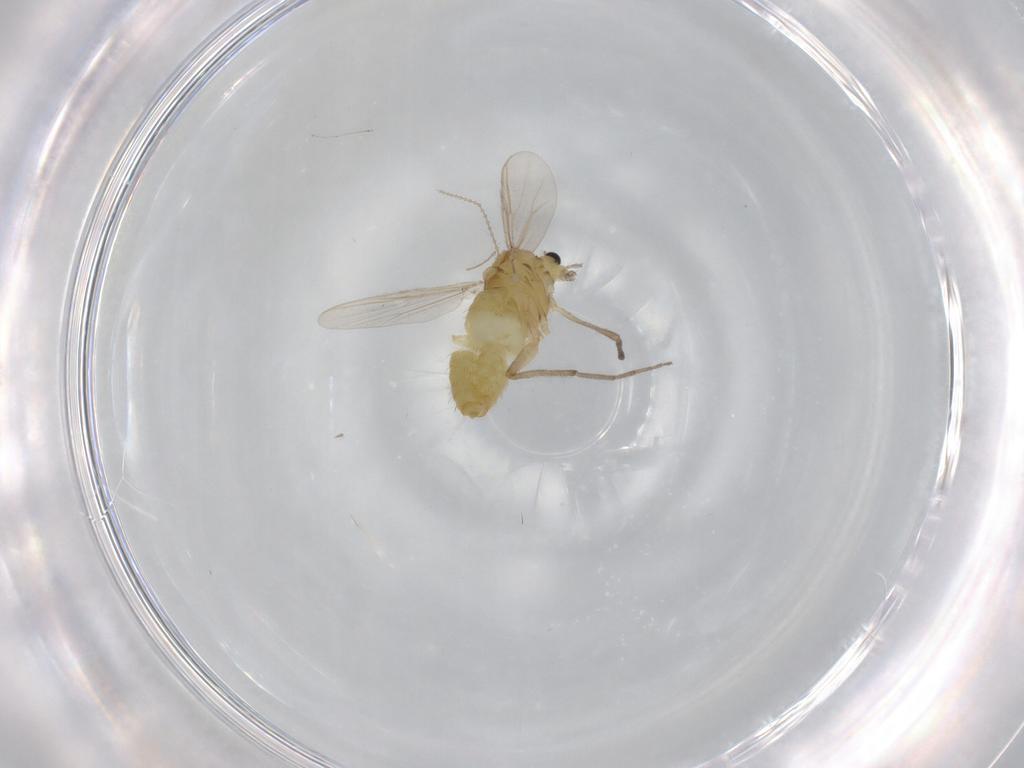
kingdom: Animalia
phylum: Arthropoda
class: Insecta
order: Diptera
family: Chironomidae
